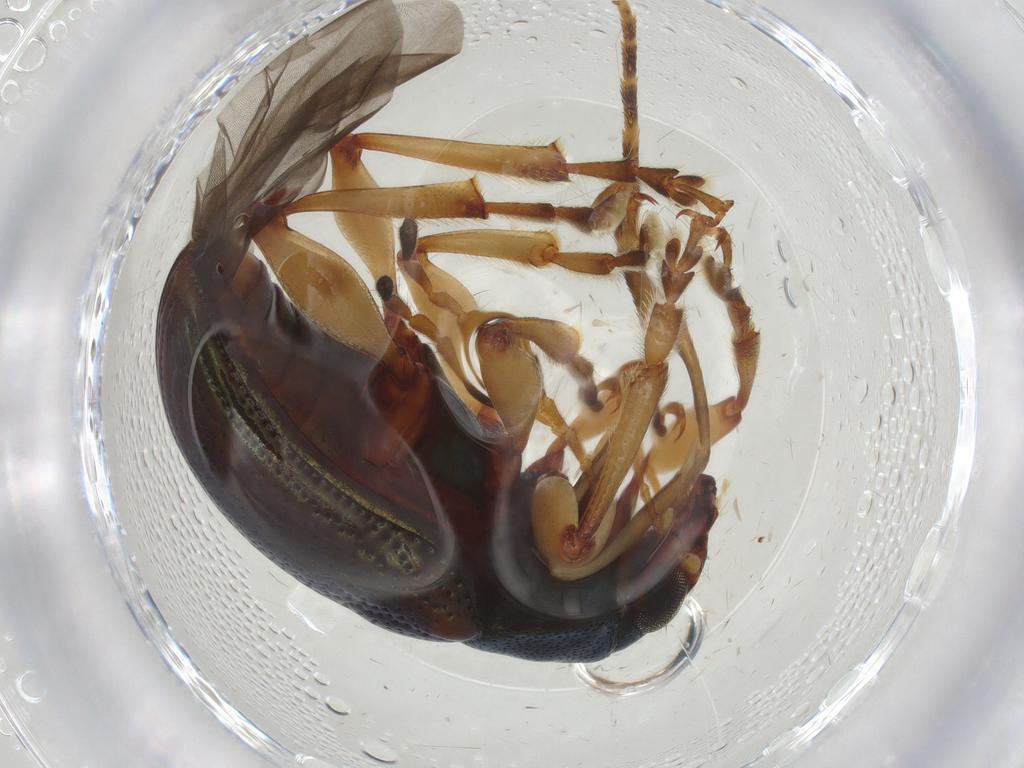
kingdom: Animalia
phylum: Arthropoda
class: Insecta
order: Coleoptera
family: Chrysomelidae
